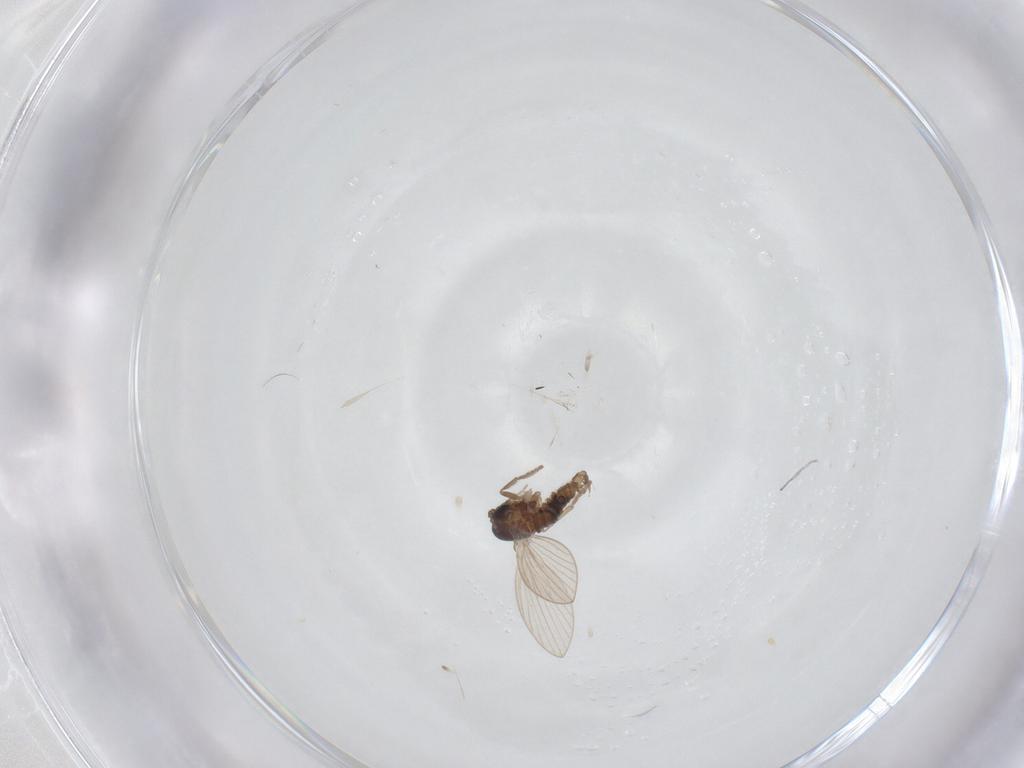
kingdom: Animalia
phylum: Arthropoda
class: Insecta
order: Diptera
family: Psychodidae
